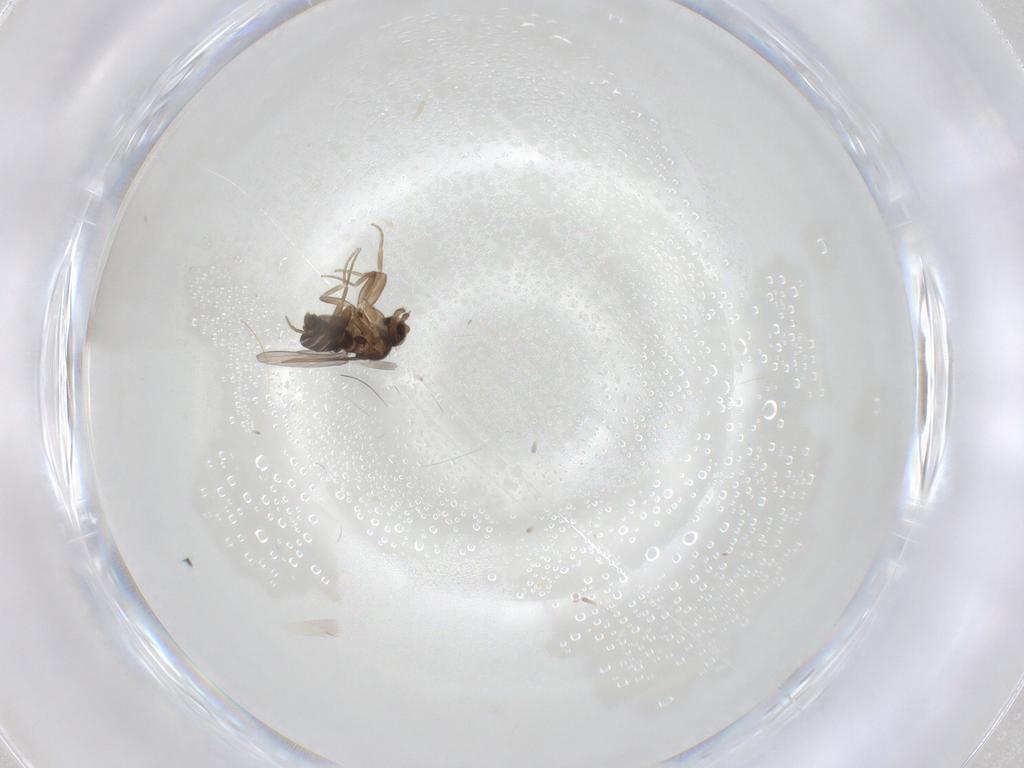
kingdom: Animalia
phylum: Arthropoda
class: Insecta
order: Diptera
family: Phoridae
